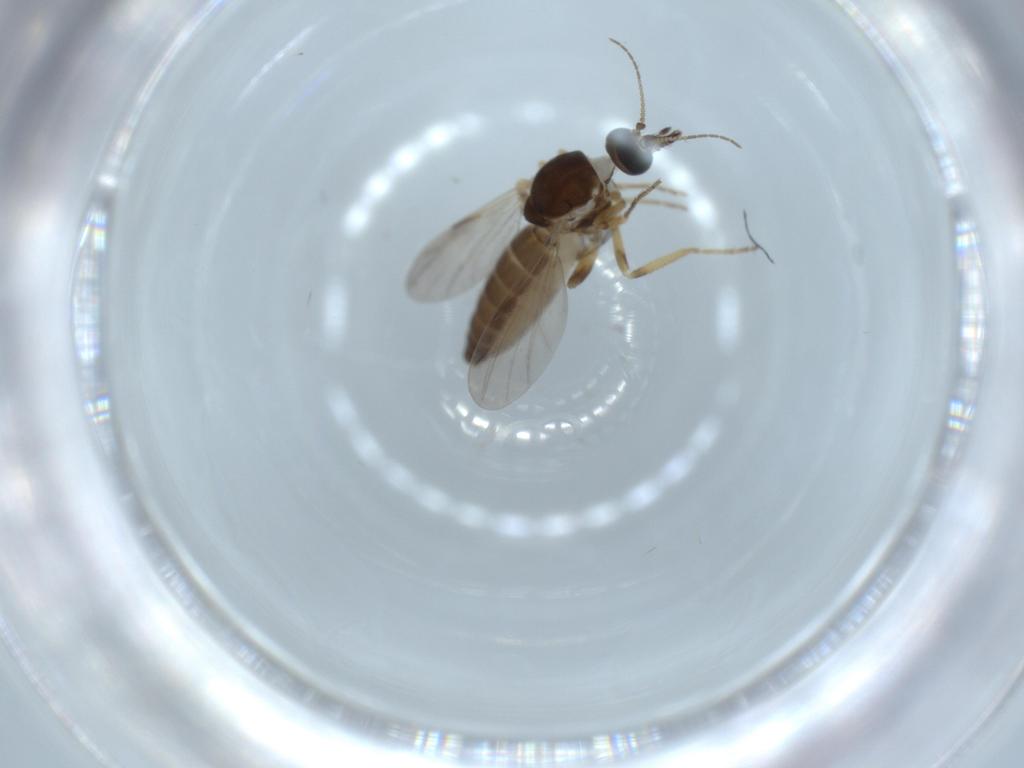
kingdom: Animalia
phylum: Arthropoda
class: Insecta
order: Diptera
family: Ceratopogonidae
